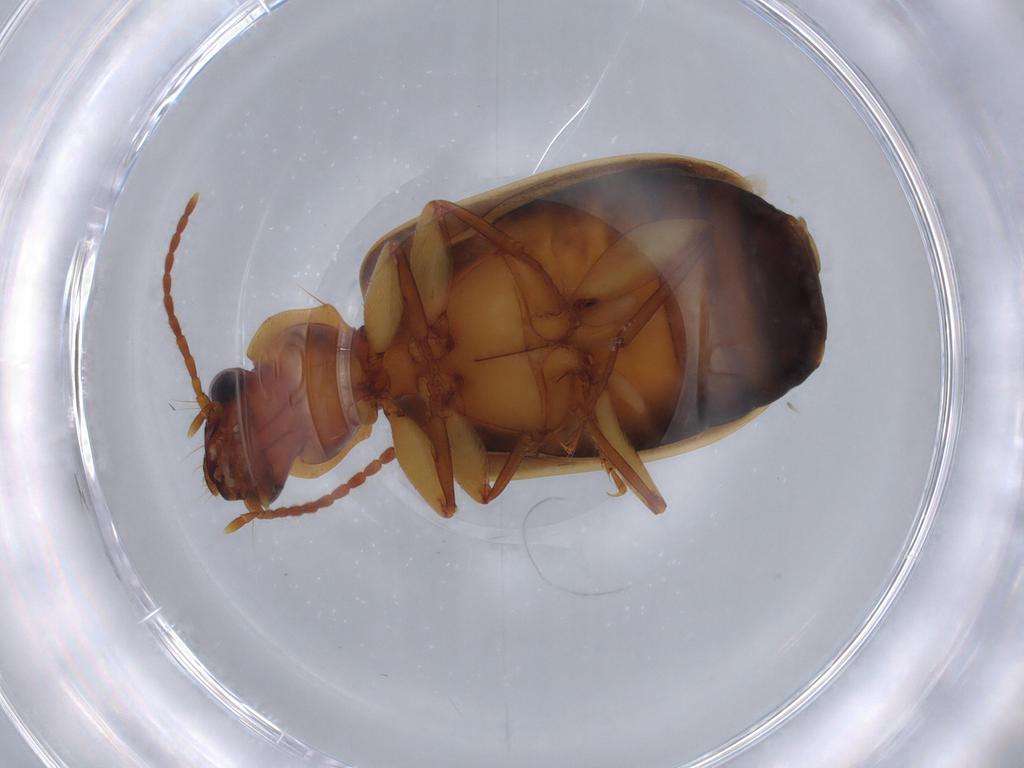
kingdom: Animalia
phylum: Arthropoda
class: Insecta
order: Coleoptera
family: Carabidae
